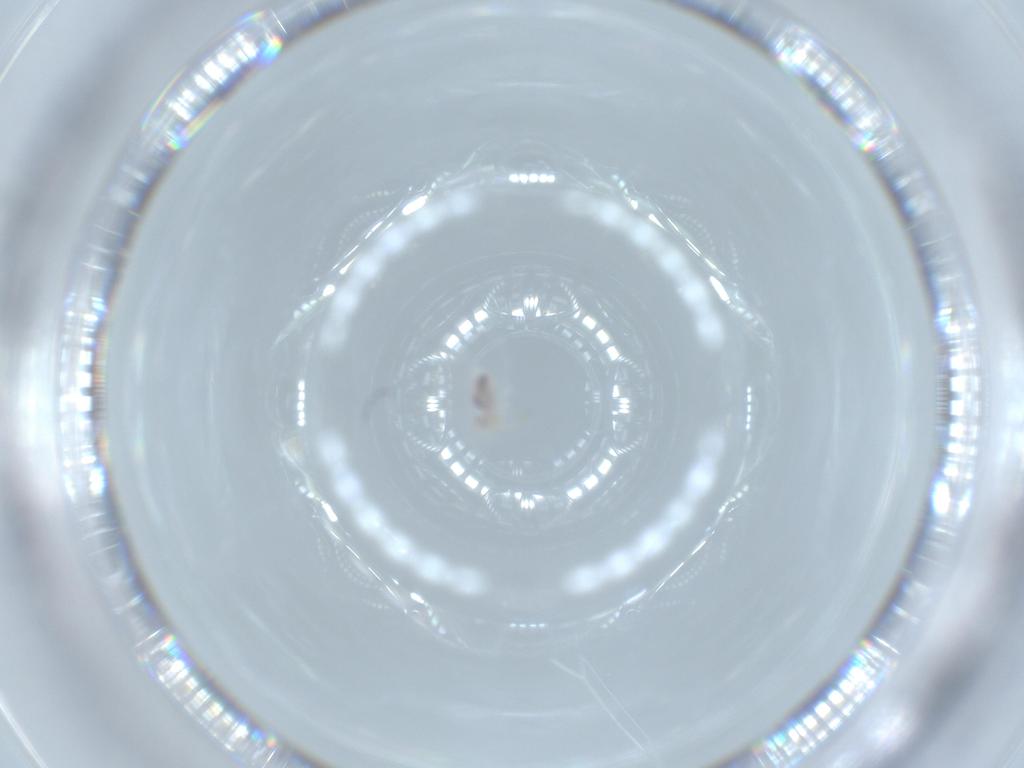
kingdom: Animalia
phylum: Arthropoda
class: Collembola
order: Symphypleona
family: Bourletiellidae
